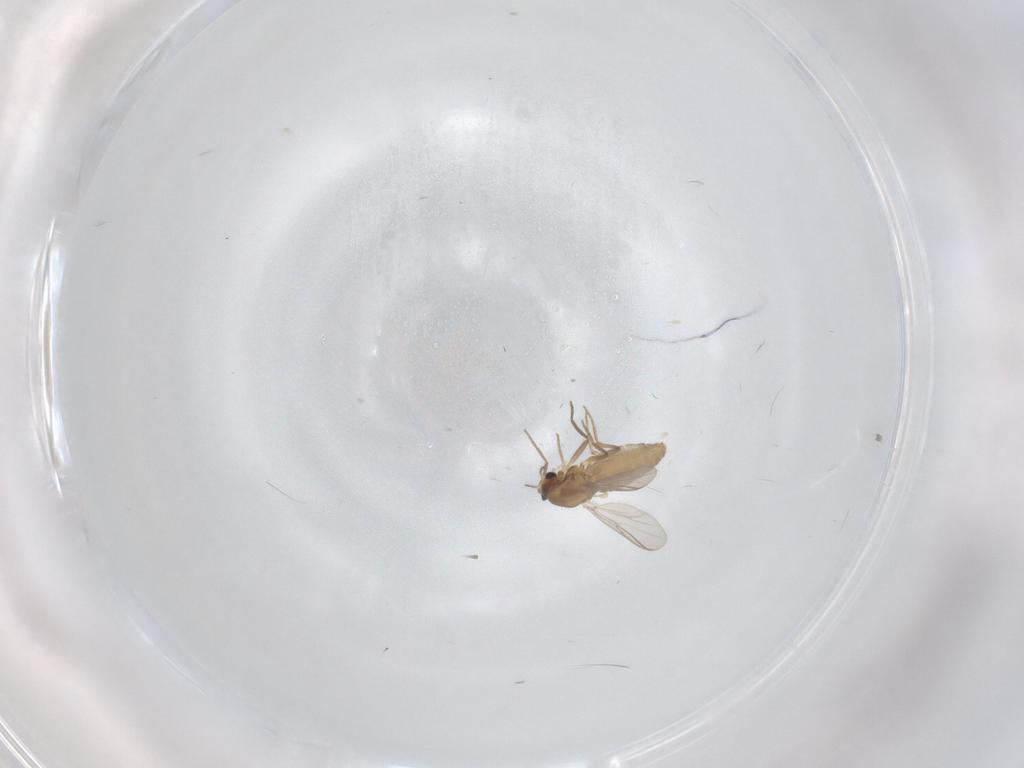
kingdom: Animalia
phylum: Arthropoda
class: Insecta
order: Diptera
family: Chironomidae
